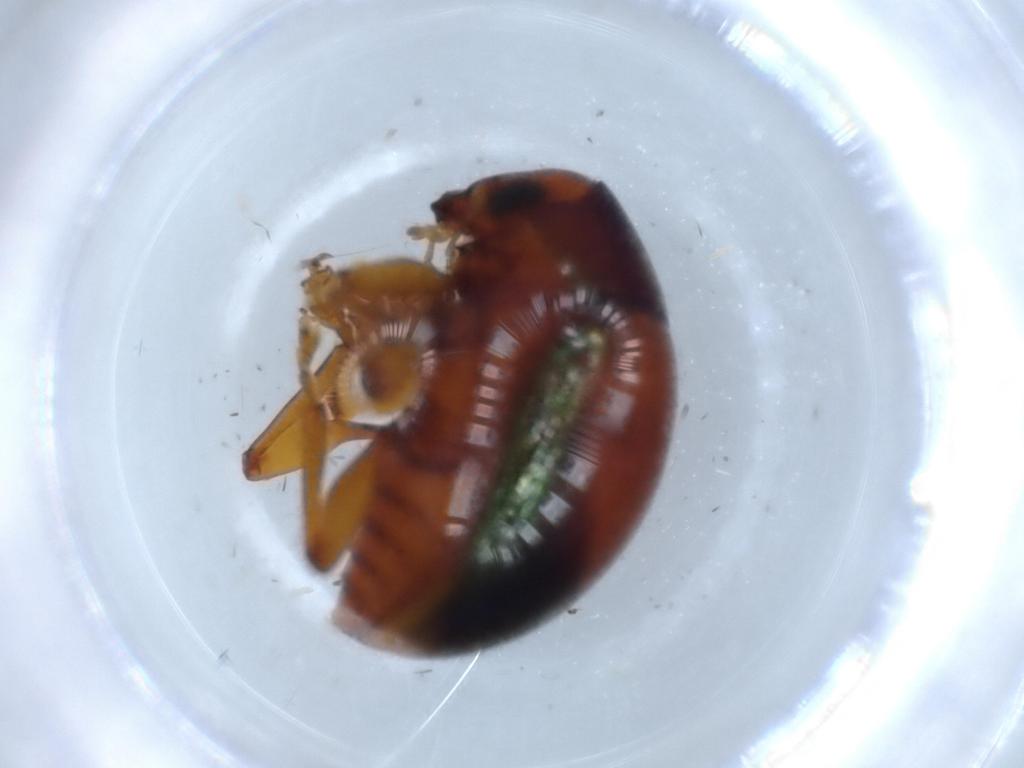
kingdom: Animalia
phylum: Arthropoda
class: Insecta
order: Coleoptera
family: Chrysomelidae
